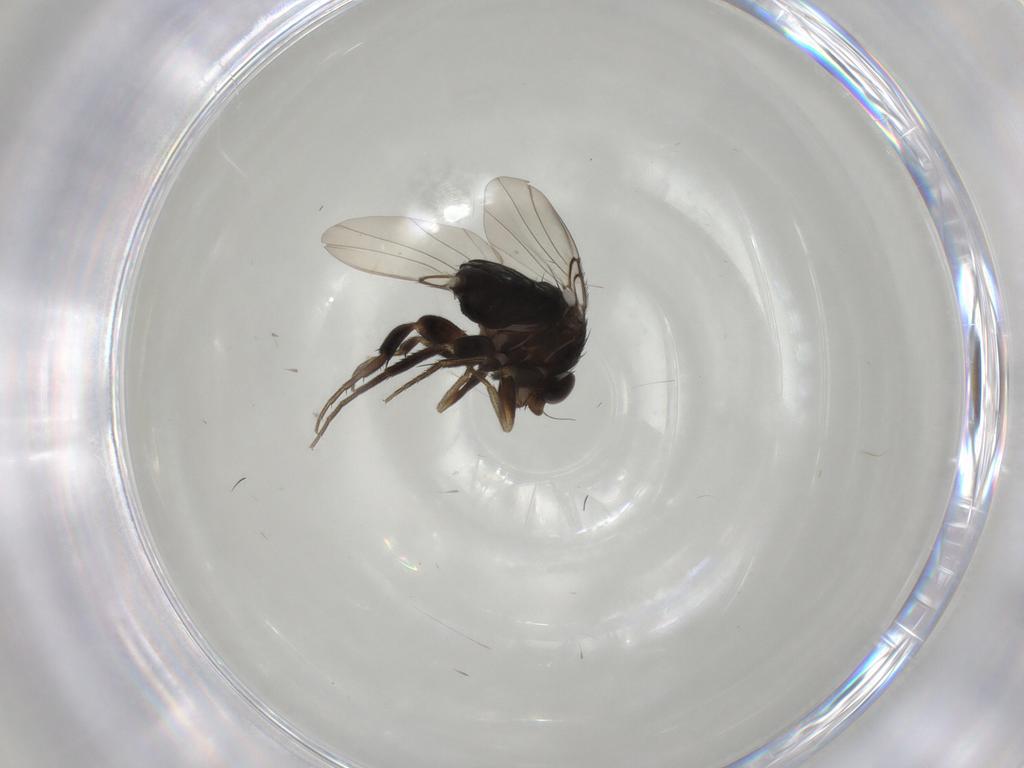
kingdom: Animalia
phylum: Arthropoda
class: Insecta
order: Diptera
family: Phoridae
